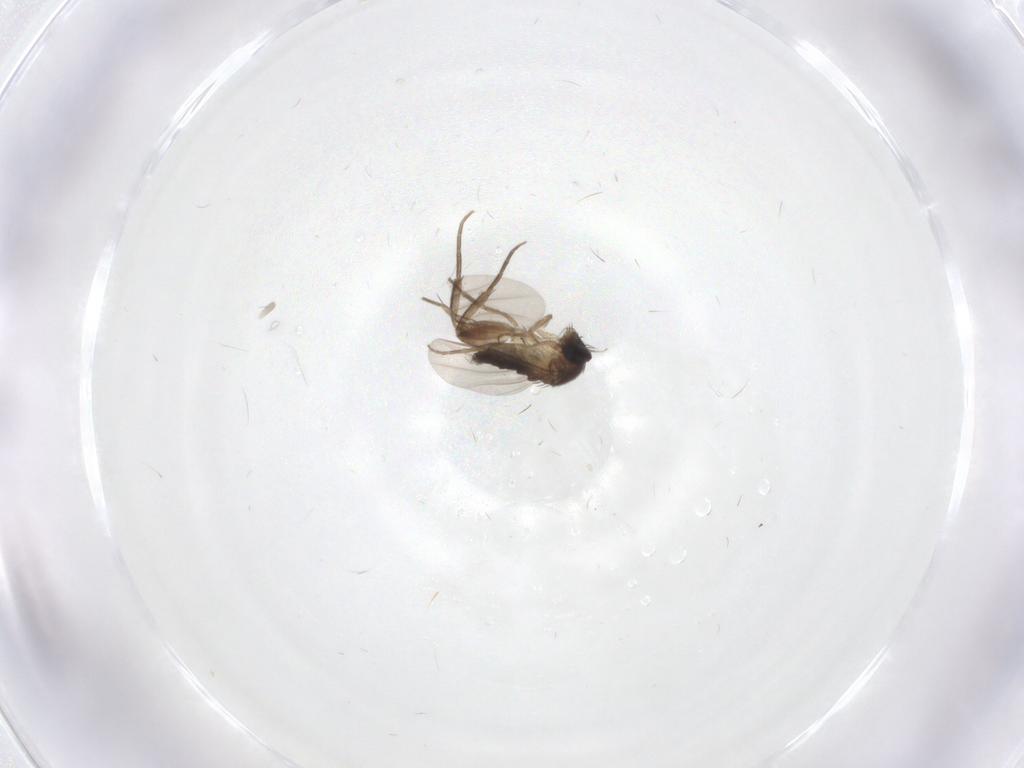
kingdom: Animalia
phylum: Arthropoda
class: Insecta
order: Diptera
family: Phoridae
